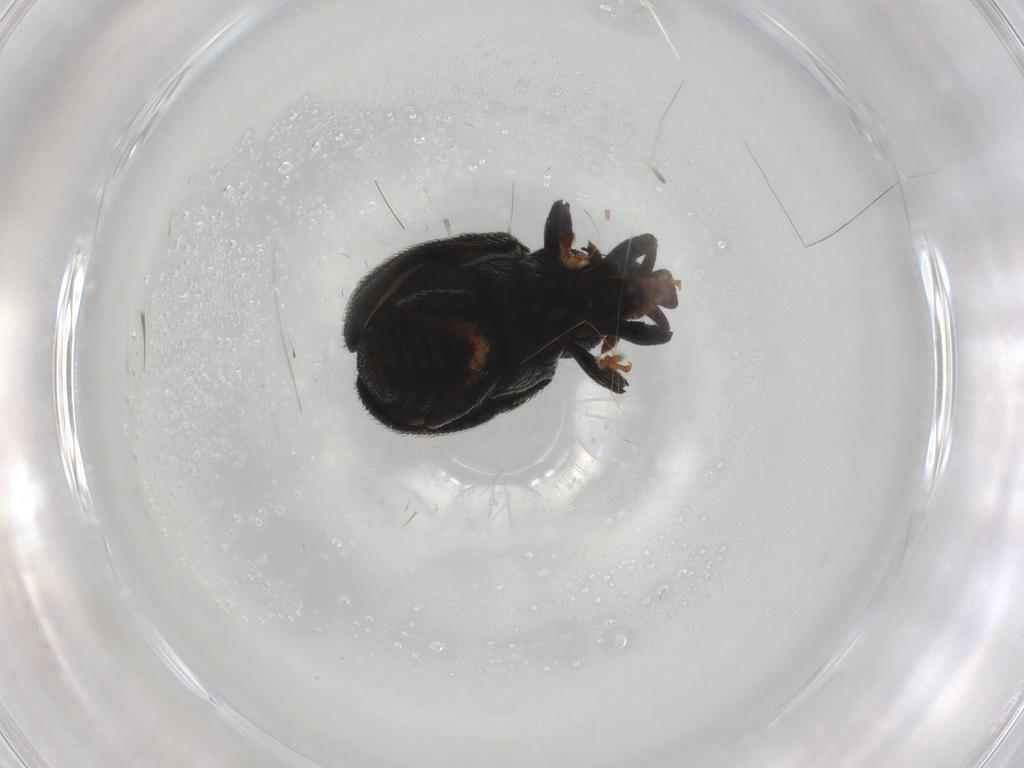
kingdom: Animalia
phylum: Arthropoda
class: Insecta
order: Coleoptera
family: Curculionidae
